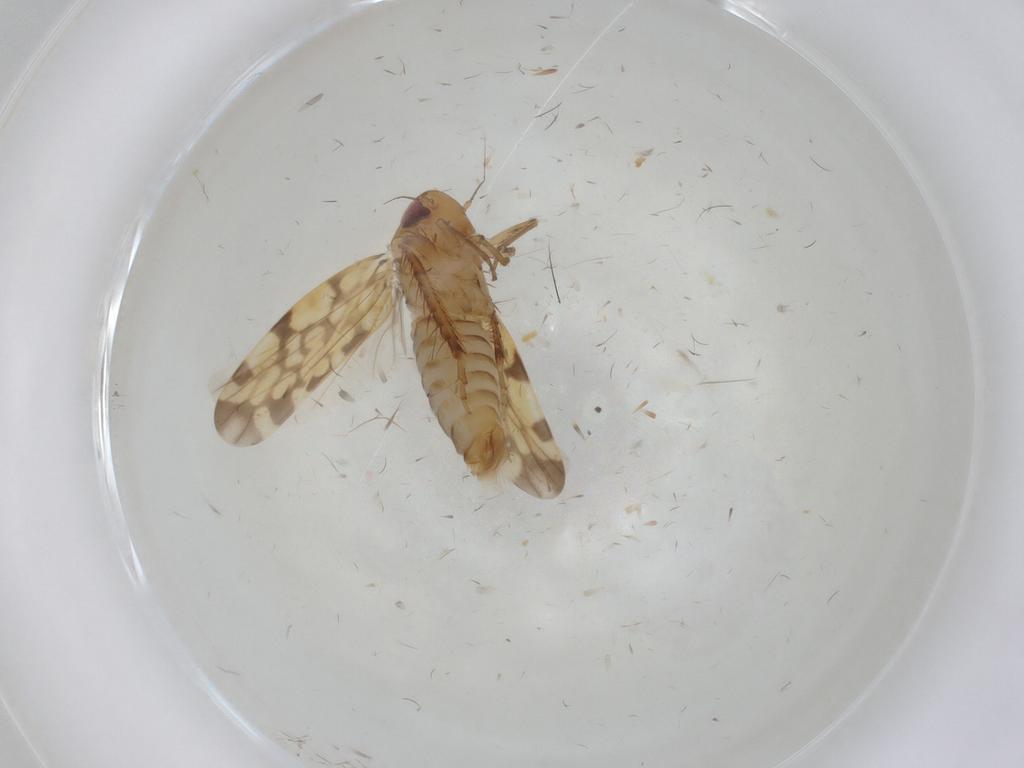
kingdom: Animalia
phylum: Arthropoda
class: Insecta
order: Hemiptera
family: Cicadellidae
